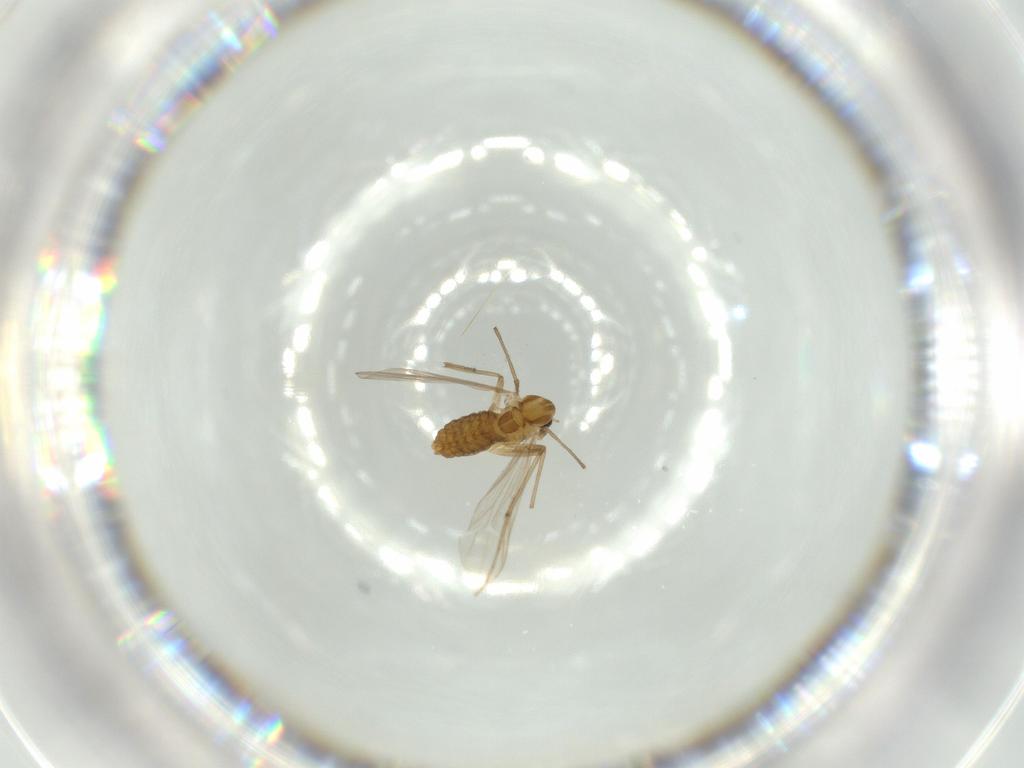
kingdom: Animalia
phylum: Arthropoda
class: Insecta
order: Diptera
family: Chironomidae
